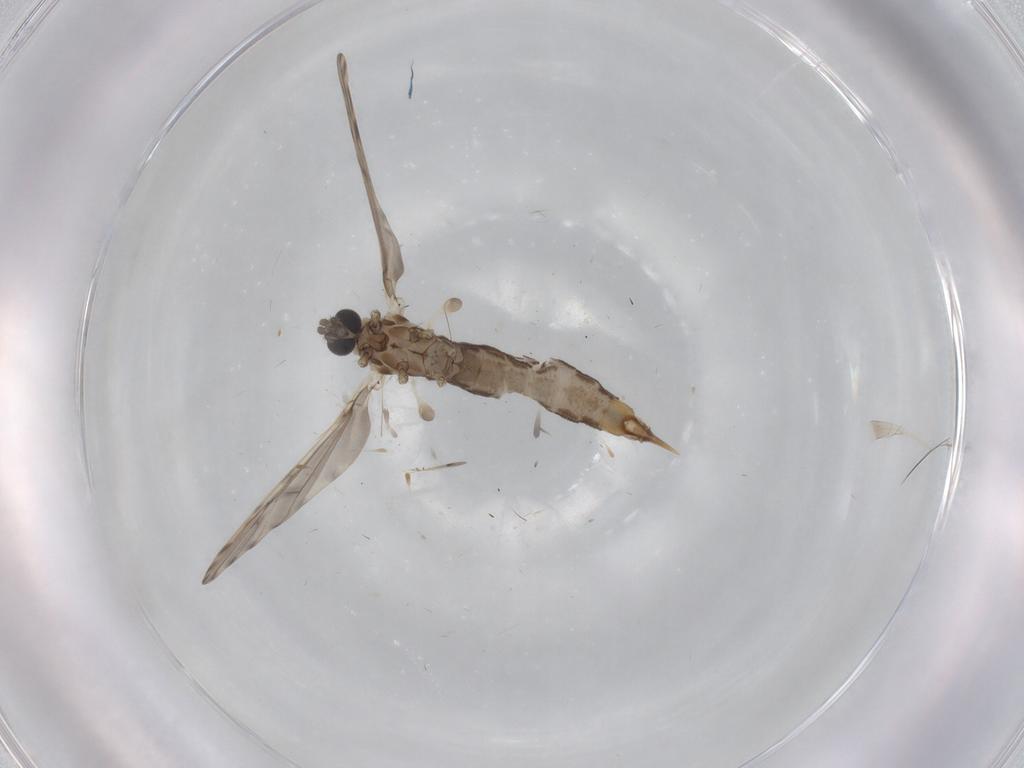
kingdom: Animalia
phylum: Arthropoda
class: Insecta
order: Diptera
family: Limoniidae
